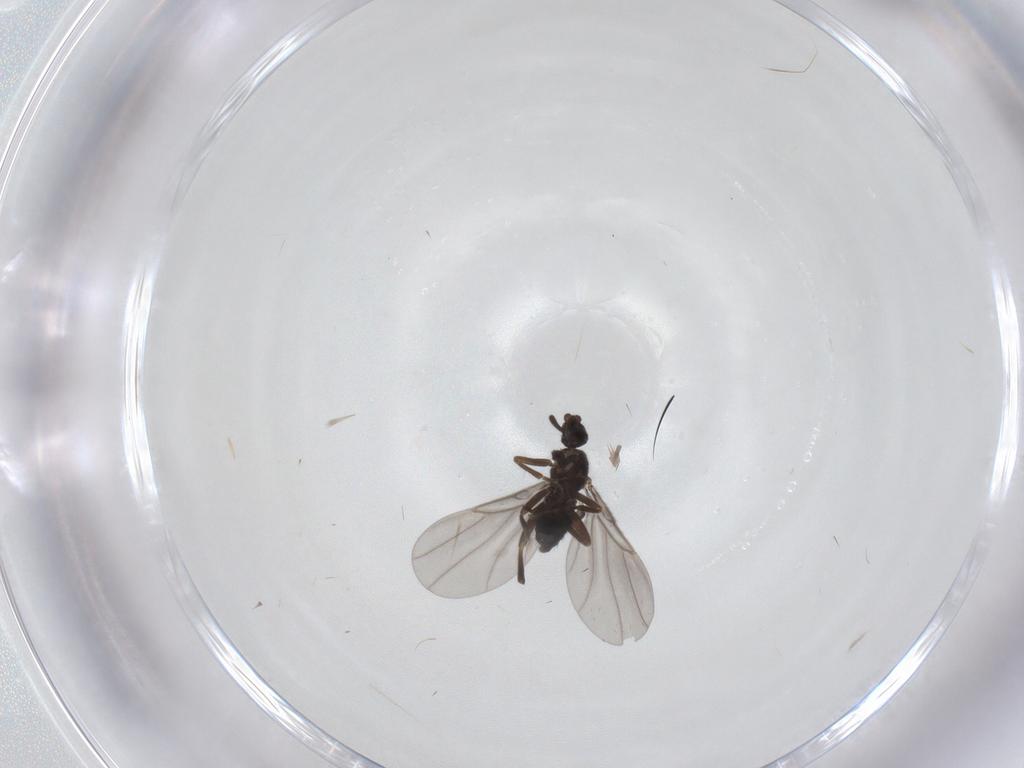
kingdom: Animalia
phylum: Arthropoda
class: Insecta
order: Diptera
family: Phoridae
